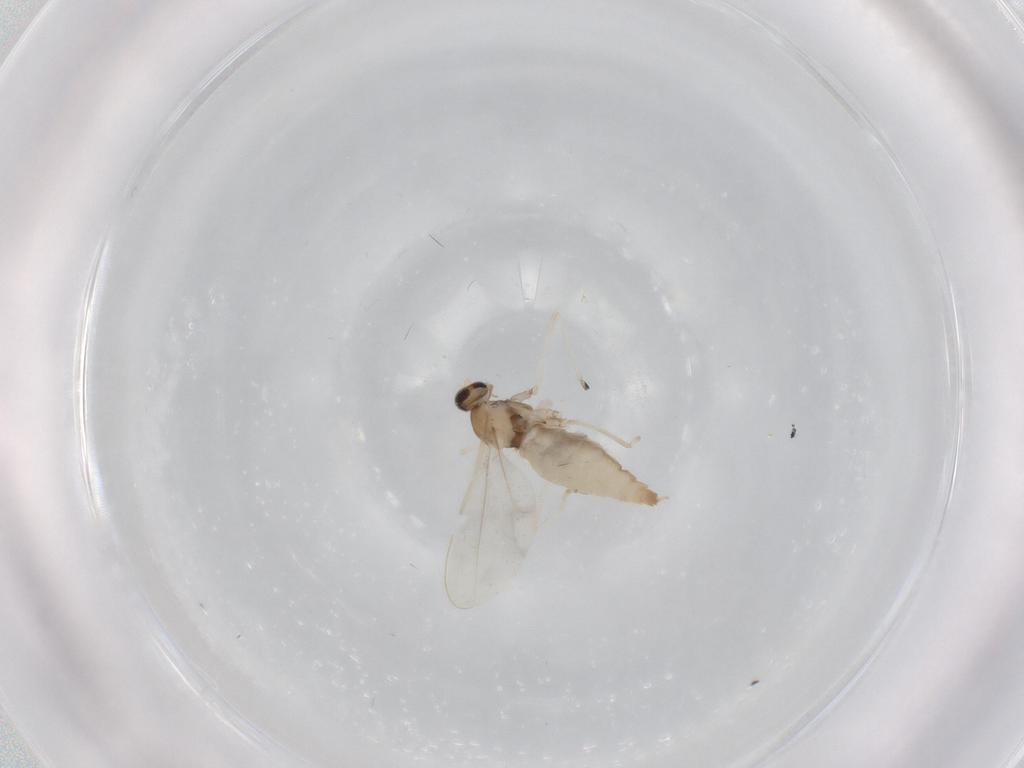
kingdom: Animalia
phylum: Arthropoda
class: Insecta
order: Diptera
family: Cecidomyiidae
